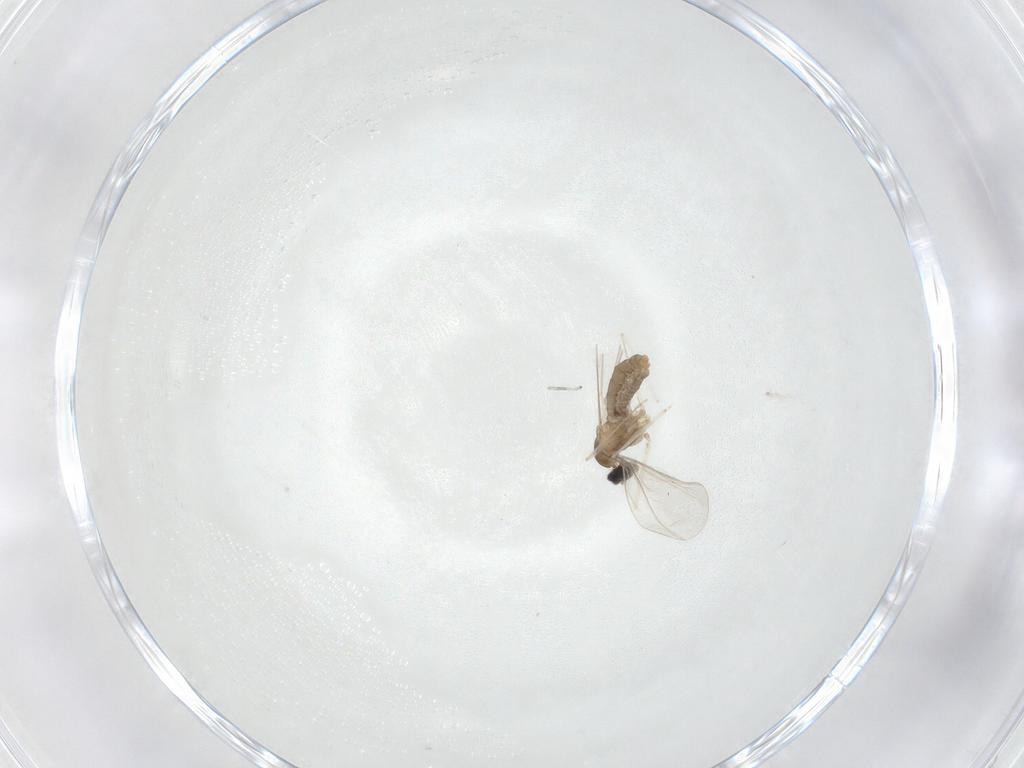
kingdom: Animalia
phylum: Arthropoda
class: Insecta
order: Diptera
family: Cecidomyiidae
